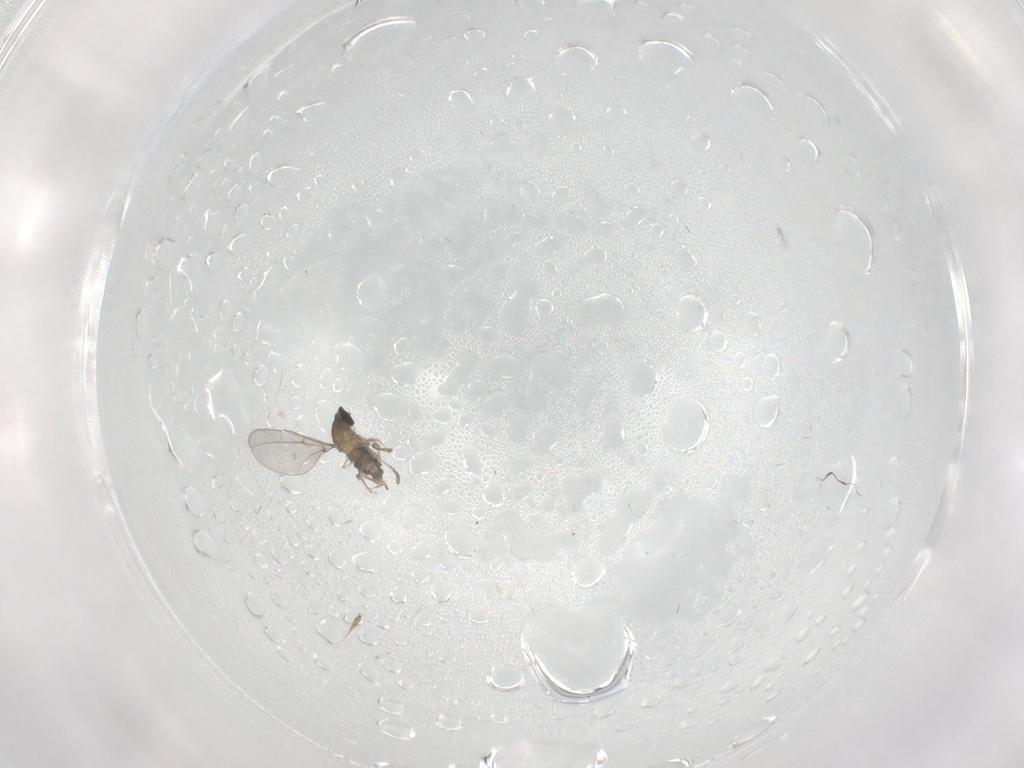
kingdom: Animalia
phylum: Arthropoda
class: Insecta
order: Diptera
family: Cecidomyiidae
